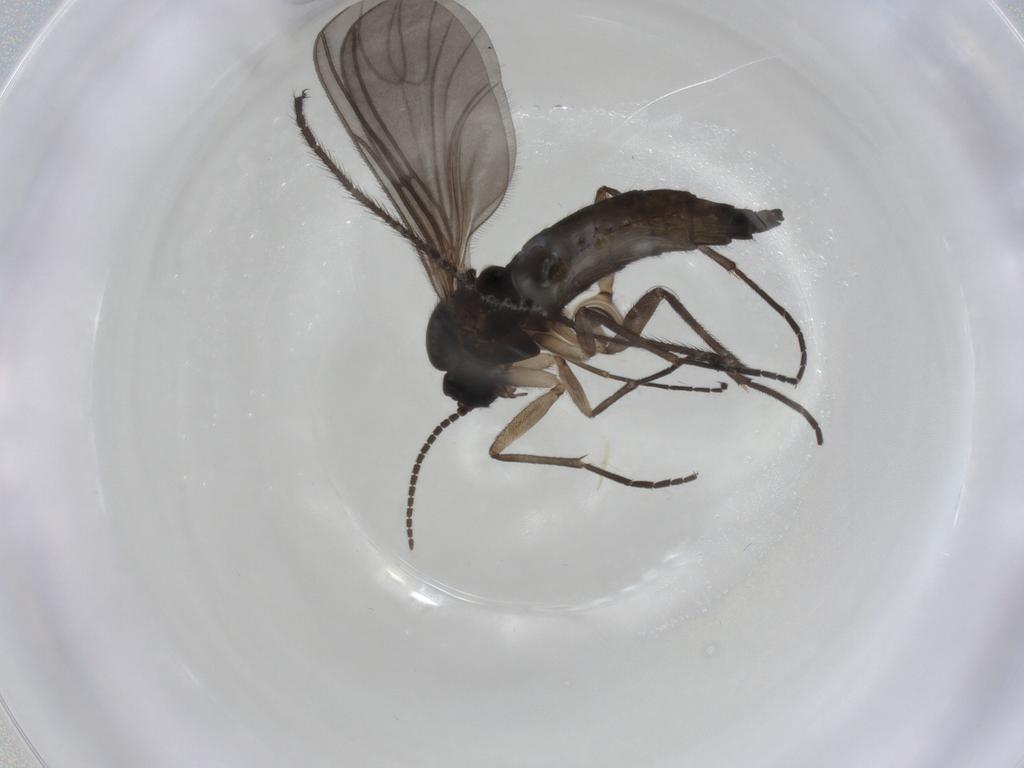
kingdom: Animalia
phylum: Arthropoda
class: Insecta
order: Diptera
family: Sciaridae
